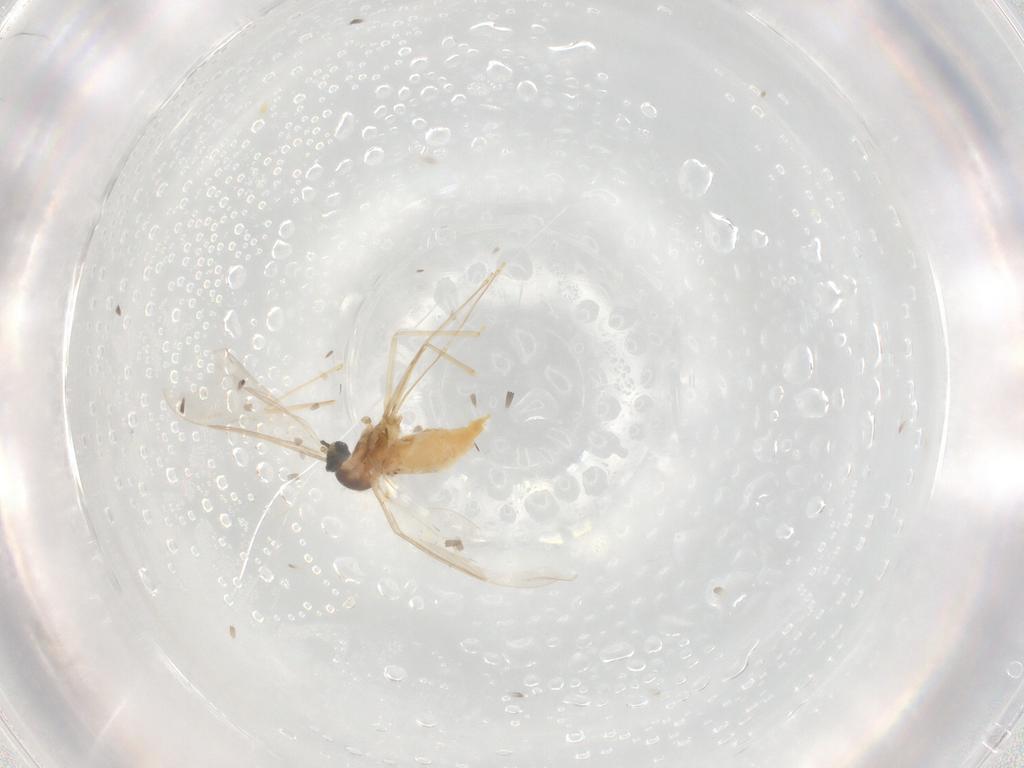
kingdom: Animalia
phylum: Arthropoda
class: Insecta
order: Diptera
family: Cecidomyiidae
